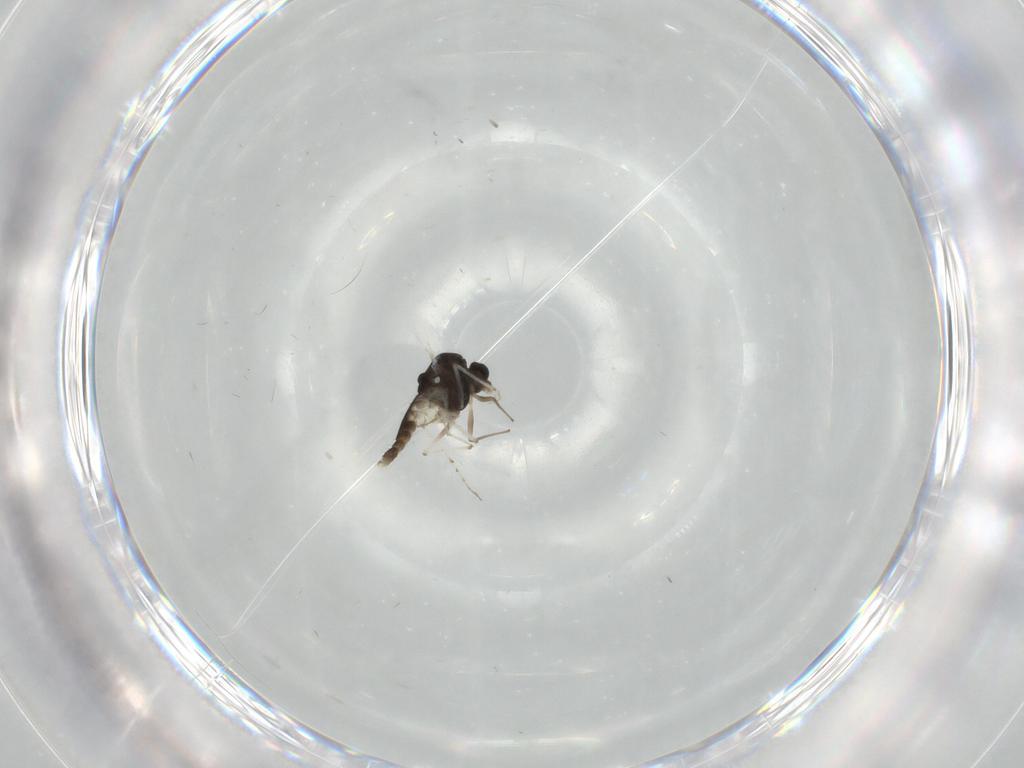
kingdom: Animalia
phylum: Arthropoda
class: Insecta
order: Diptera
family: Chironomidae
